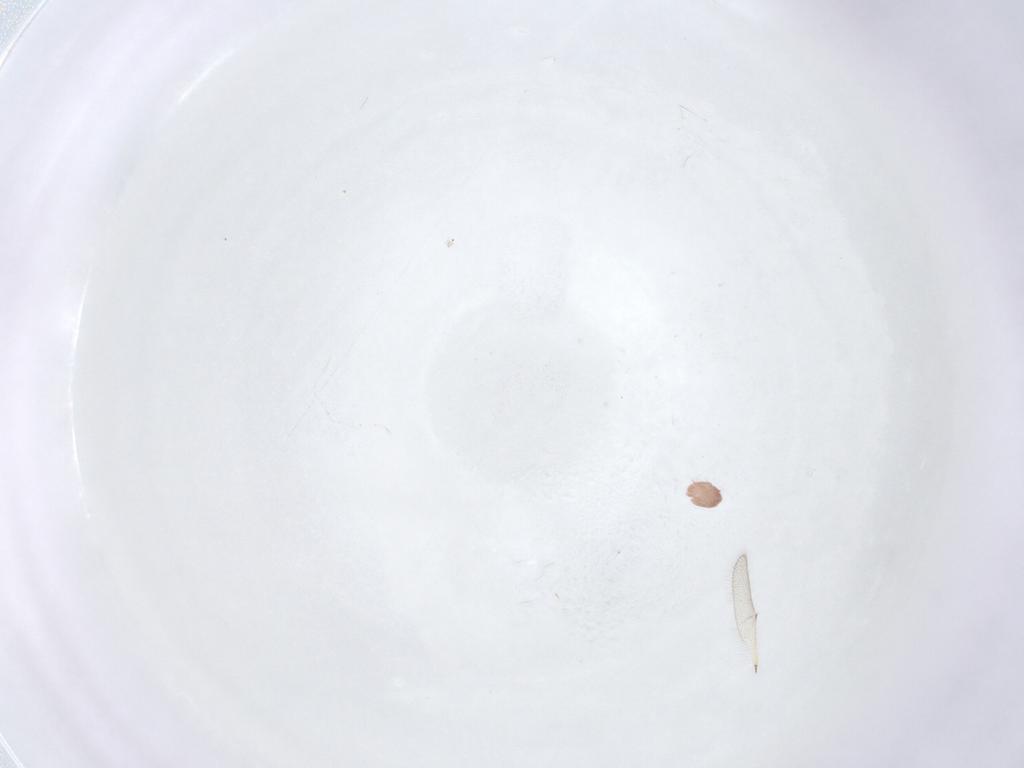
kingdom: Animalia
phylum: Arthropoda
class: Insecta
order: Hymenoptera
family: Diapriidae
